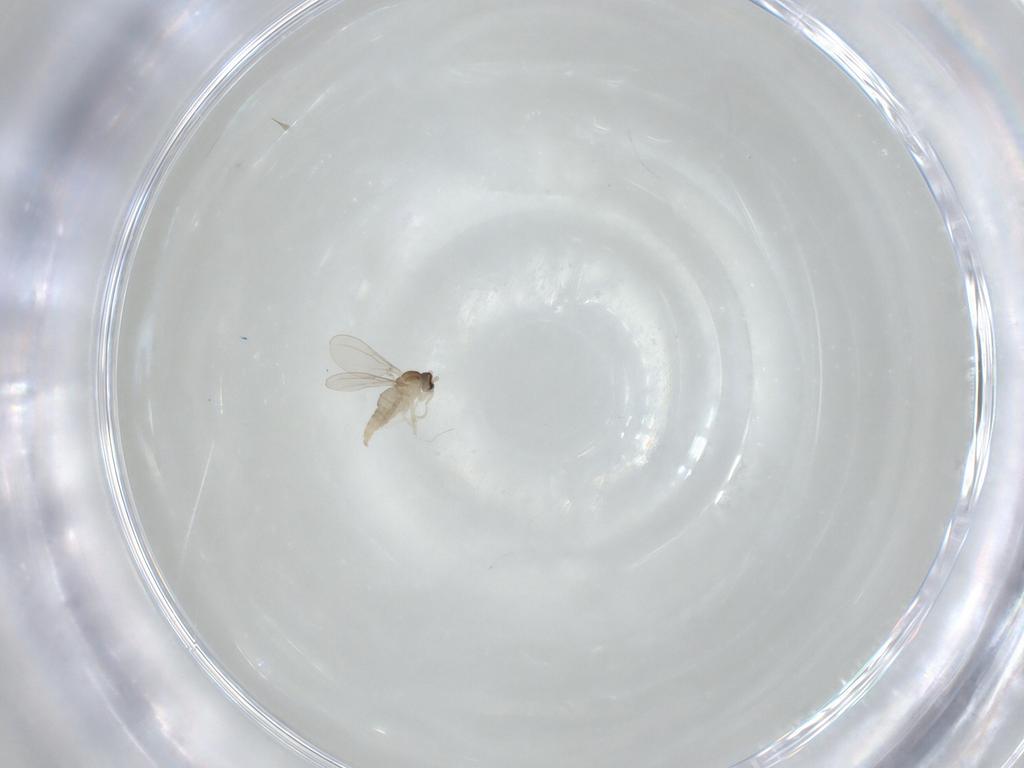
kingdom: Animalia
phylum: Arthropoda
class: Insecta
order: Diptera
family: Cecidomyiidae
